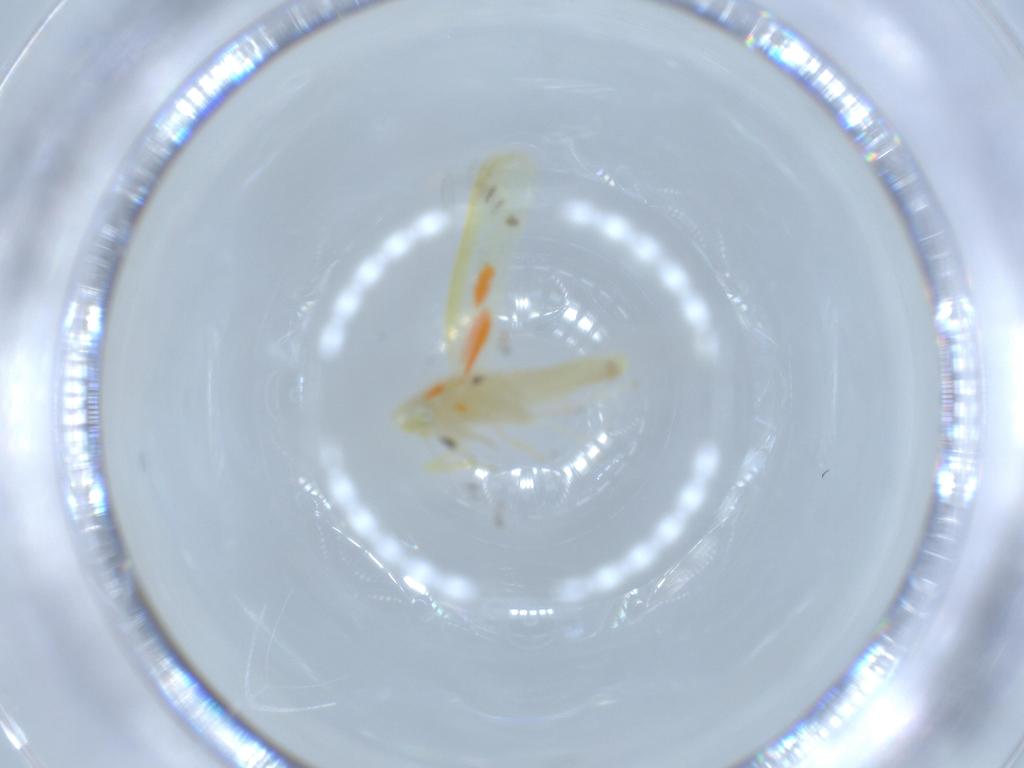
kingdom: Animalia
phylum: Arthropoda
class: Insecta
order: Hemiptera
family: Cicadellidae
